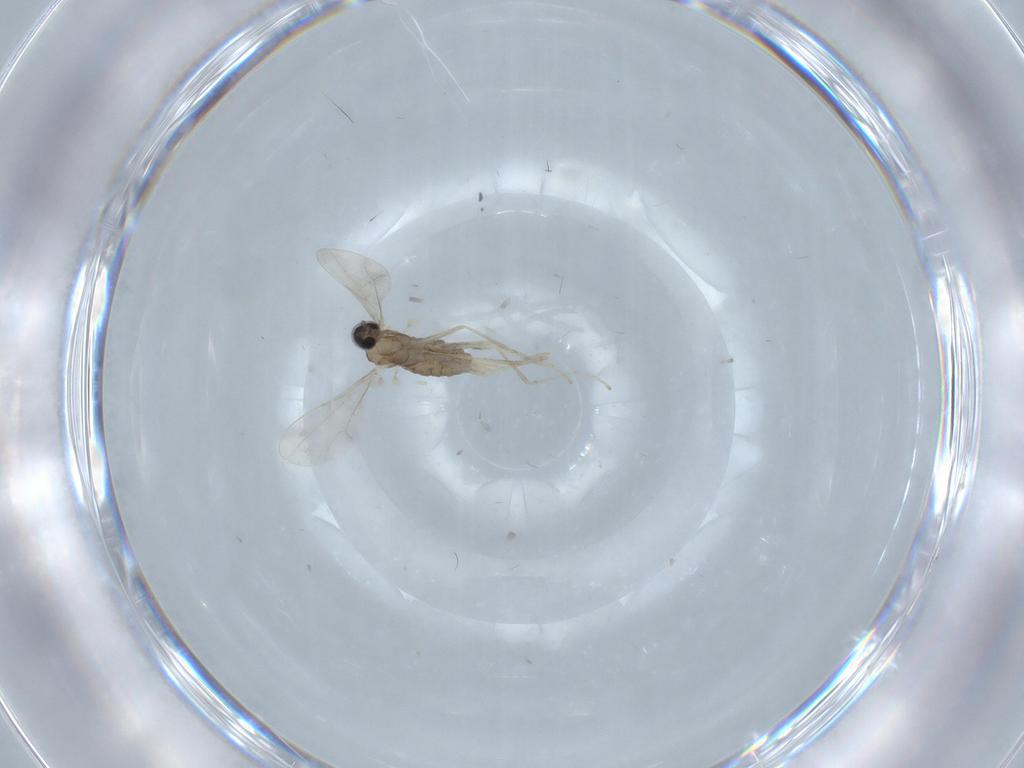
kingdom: Animalia
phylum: Arthropoda
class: Insecta
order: Diptera
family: Cecidomyiidae
